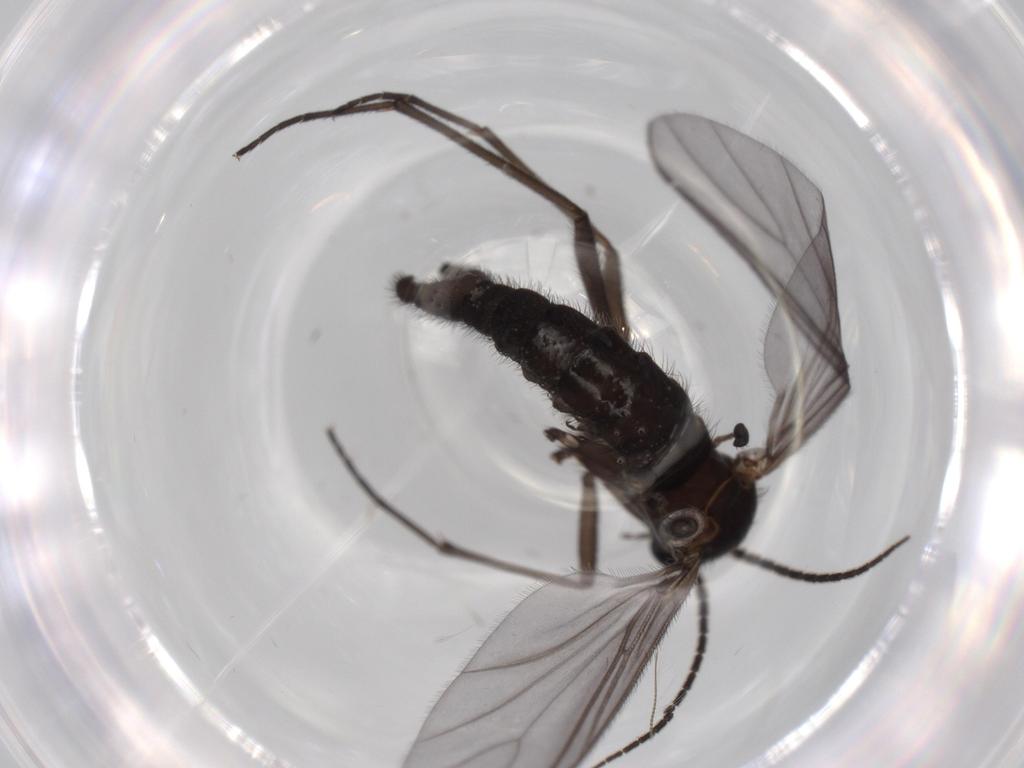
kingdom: Animalia
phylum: Arthropoda
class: Insecta
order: Diptera
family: Chironomidae
